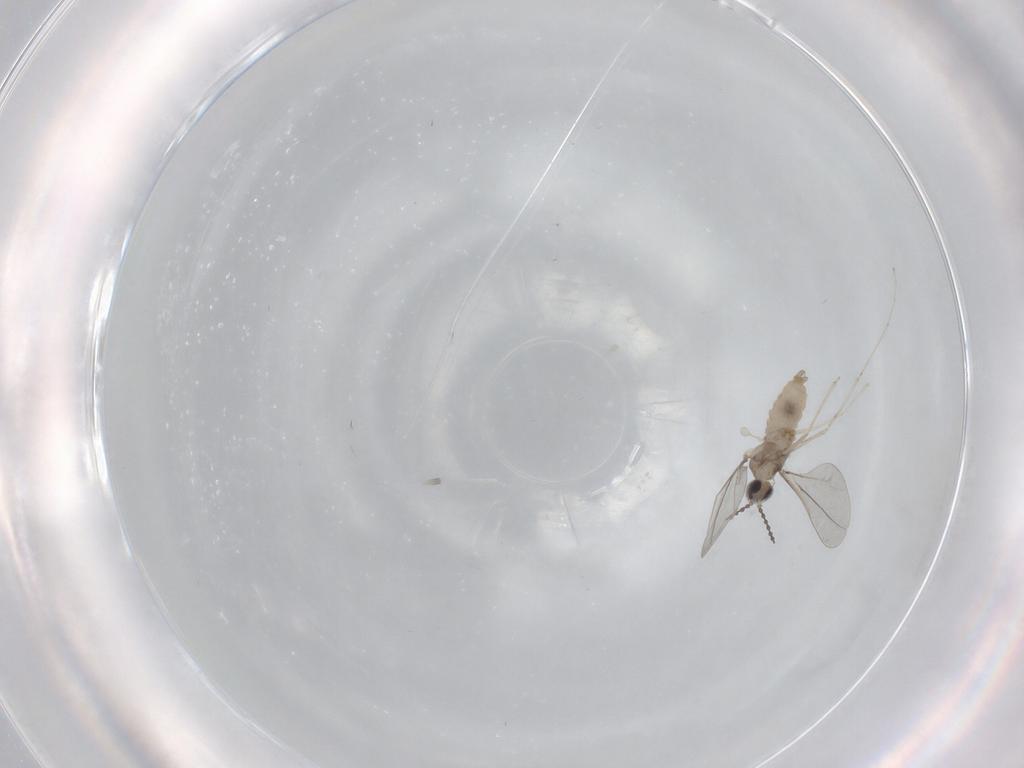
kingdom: Animalia
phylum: Arthropoda
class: Insecta
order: Diptera
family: Cecidomyiidae
